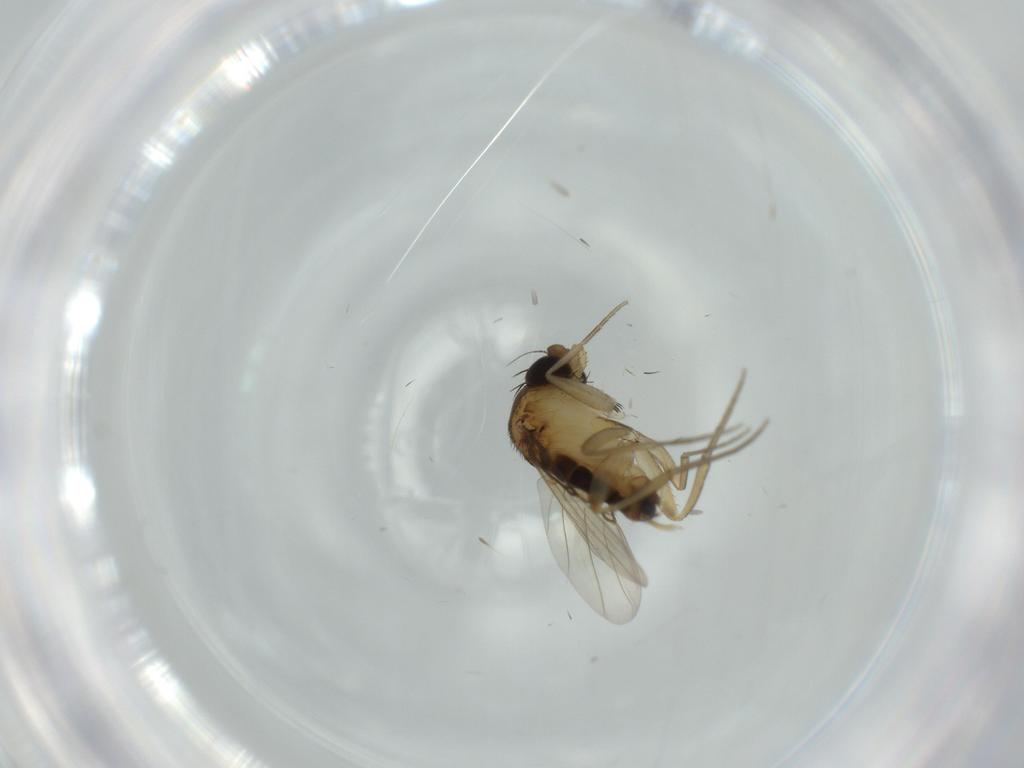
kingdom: Animalia
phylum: Arthropoda
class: Insecta
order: Diptera
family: Phoridae
